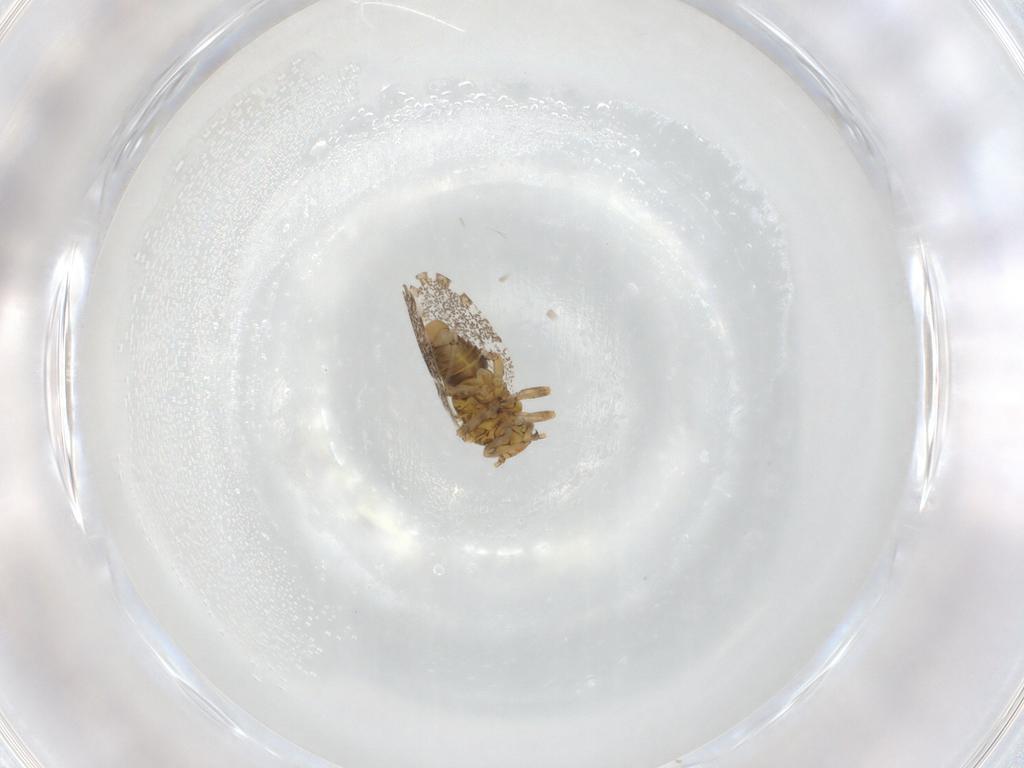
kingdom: Animalia
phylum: Arthropoda
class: Insecta
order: Hemiptera
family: Psylloidea_incertae_sedis
